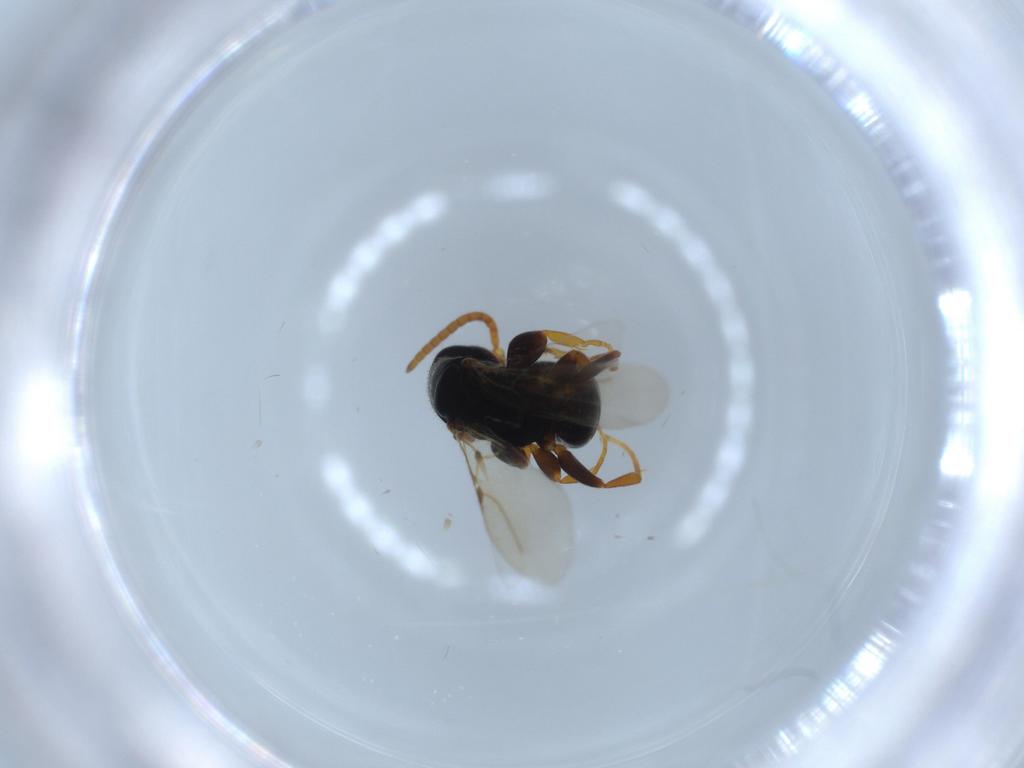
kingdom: Animalia
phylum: Arthropoda
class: Insecta
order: Hymenoptera
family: Bethylidae
